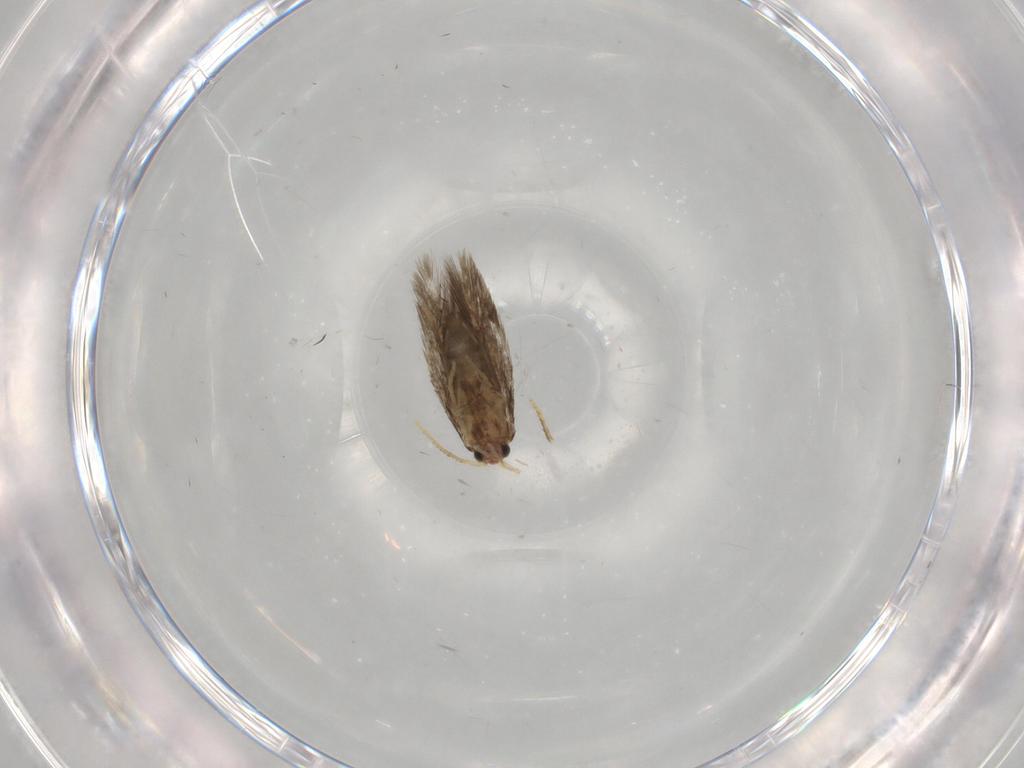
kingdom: Animalia
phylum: Arthropoda
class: Insecta
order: Lepidoptera
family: Copromorphidae
